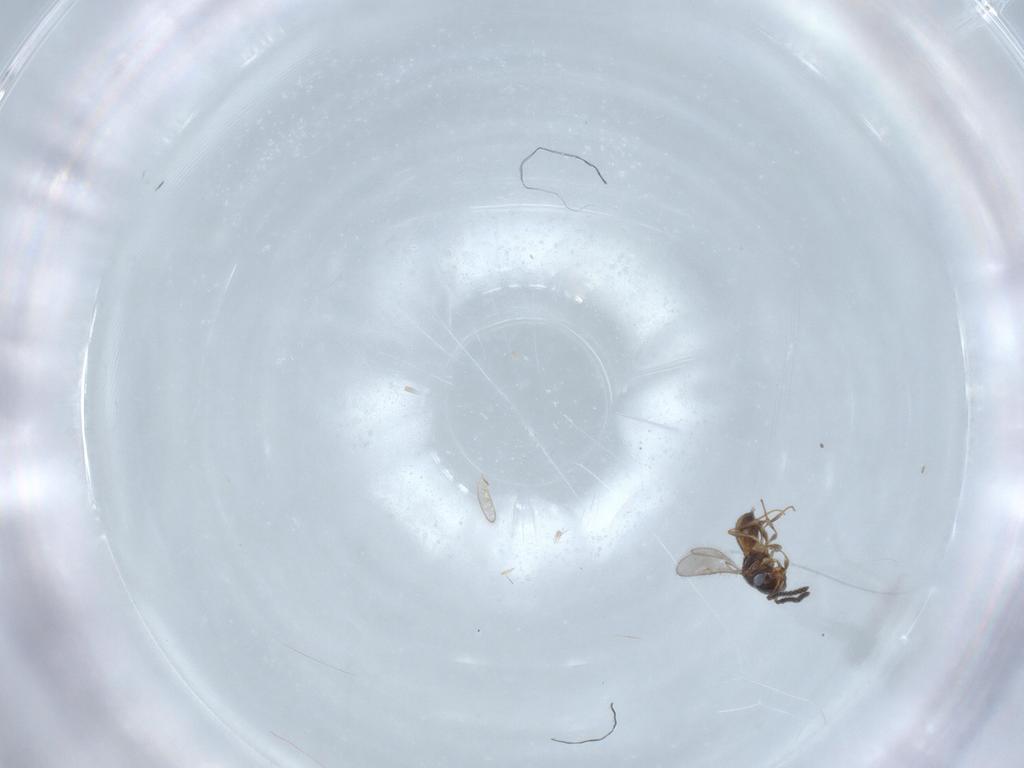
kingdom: Animalia
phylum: Arthropoda
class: Insecta
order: Hymenoptera
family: Scelionidae
